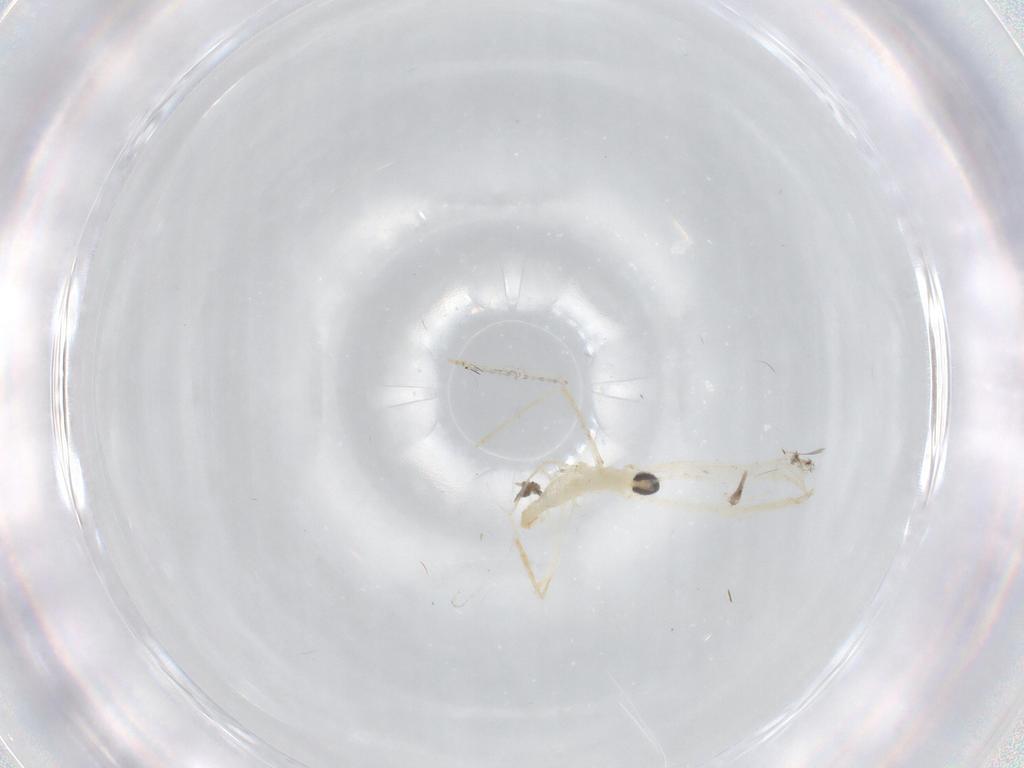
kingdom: Animalia
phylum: Arthropoda
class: Insecta
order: Diptera
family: Cecidomyiidae
